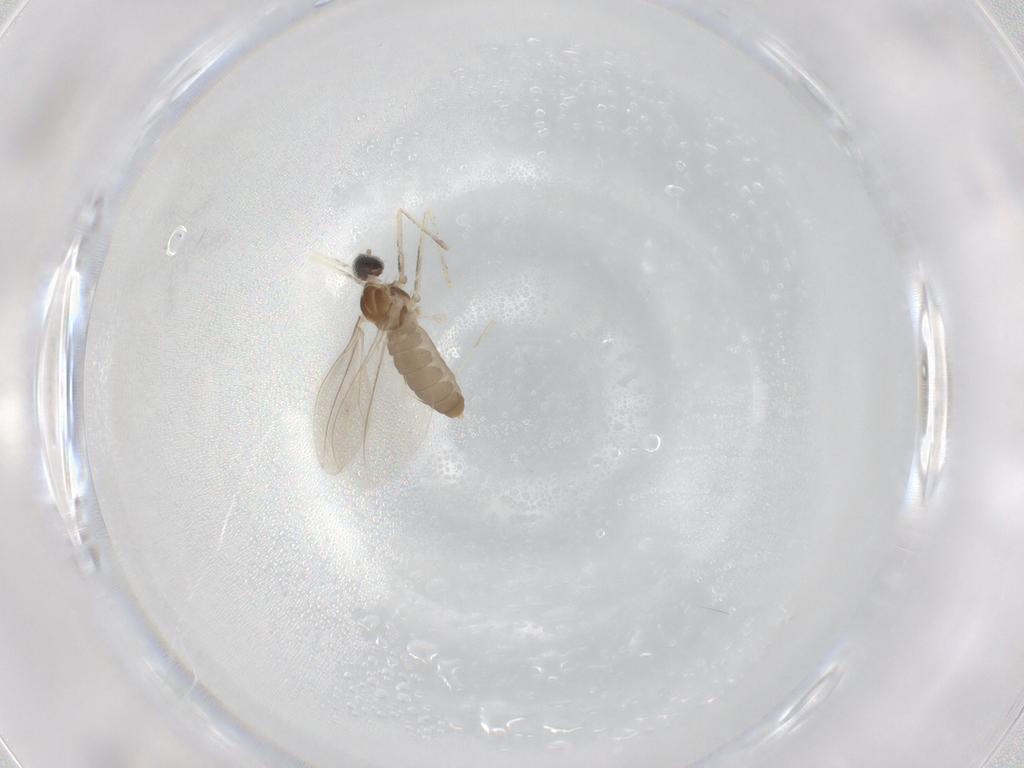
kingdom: Animalia
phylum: Arthropoda
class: Insecta
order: Diptera
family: Cecidomyiidae
